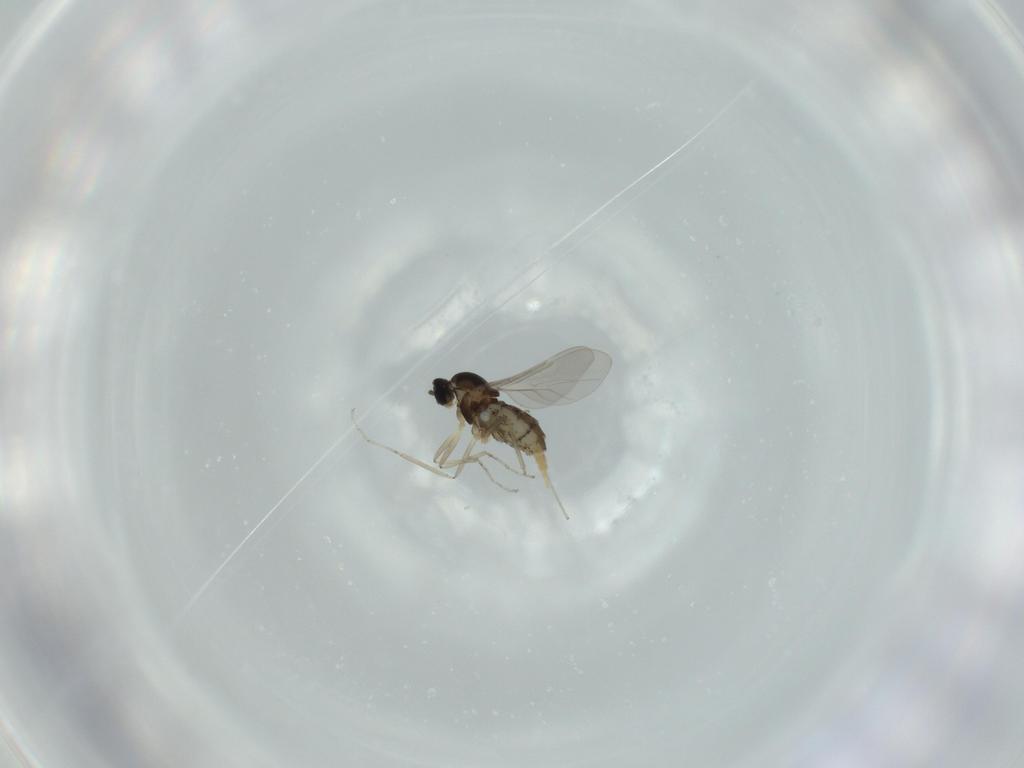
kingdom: Animalia
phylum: Arthropoda
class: Insecta
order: Diptera
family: Cecidomyiidae
